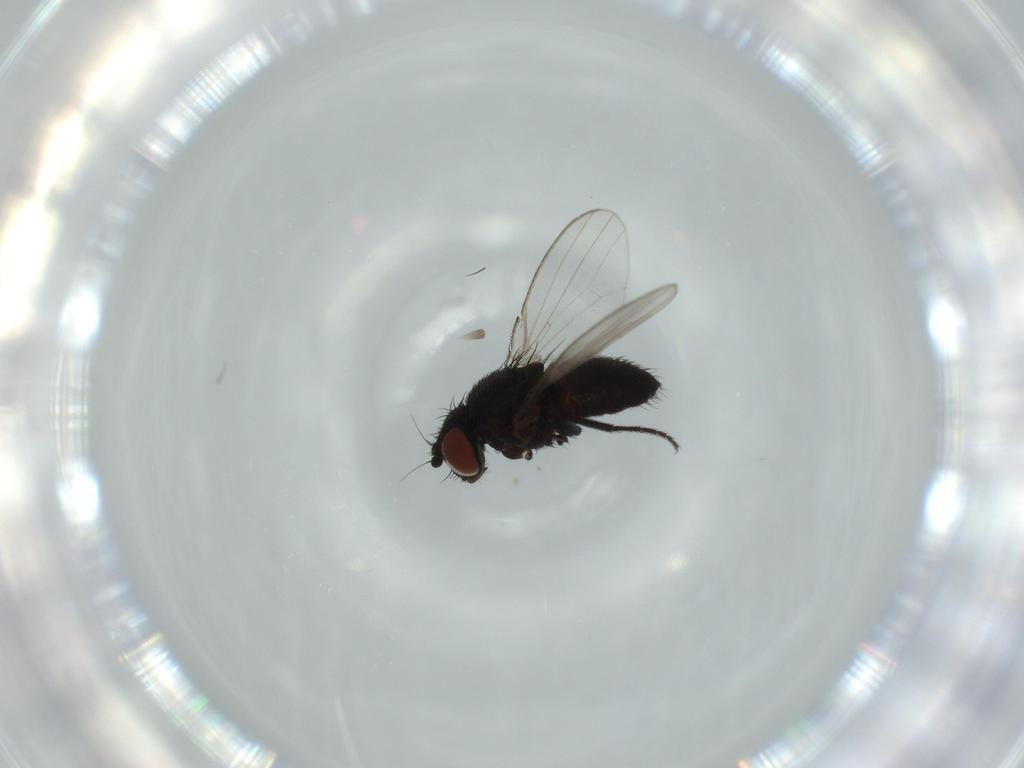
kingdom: Animalia
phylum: Arthropoda
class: Insecta
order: Diptera
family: Milichiidae
